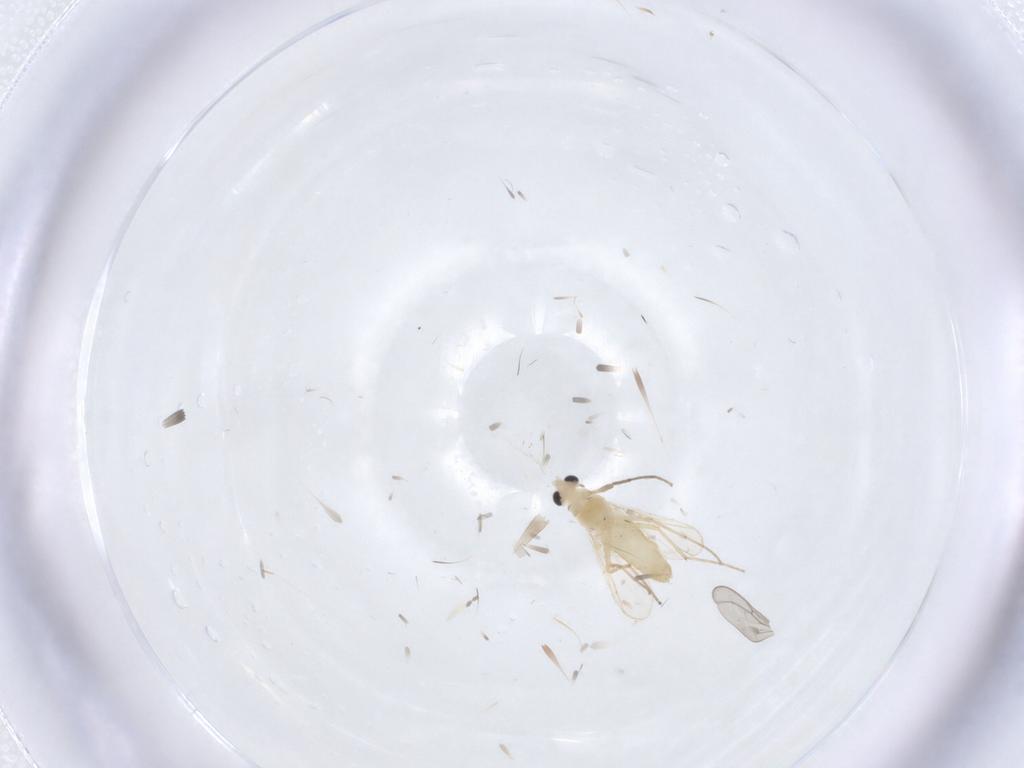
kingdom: Animalia
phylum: Arthropoda
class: Insecta
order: Diptera
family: Chironomidae
